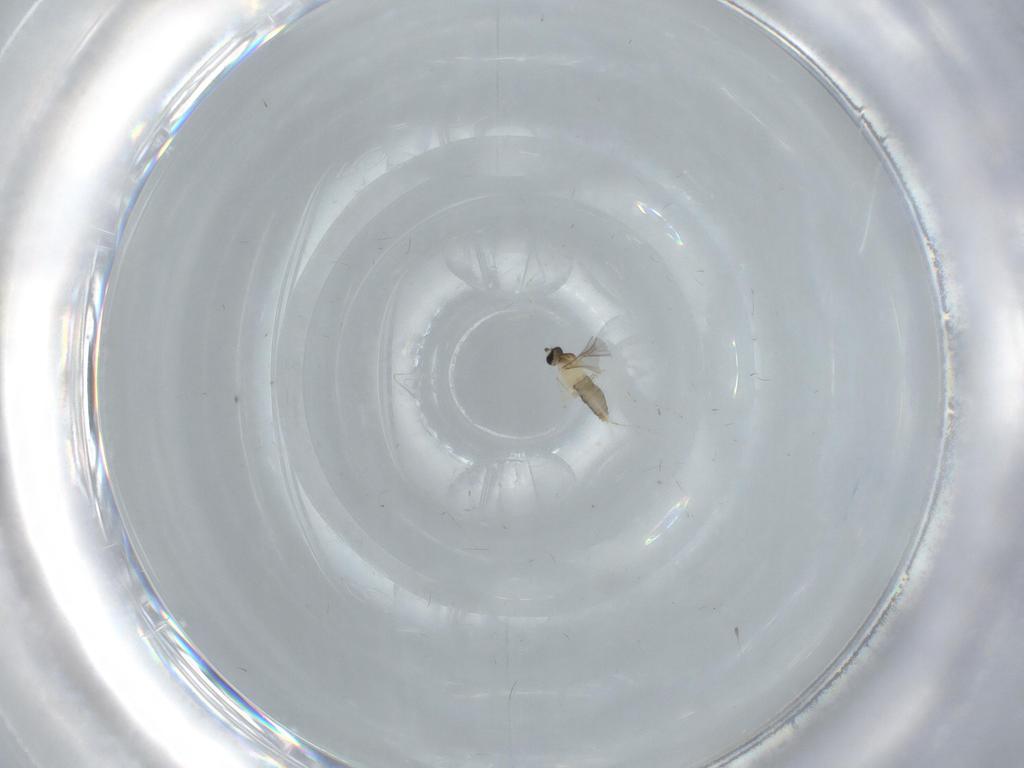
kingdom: Animalia
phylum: Arthropoda
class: Insecta
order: Diptera
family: Cecidomyiidae
